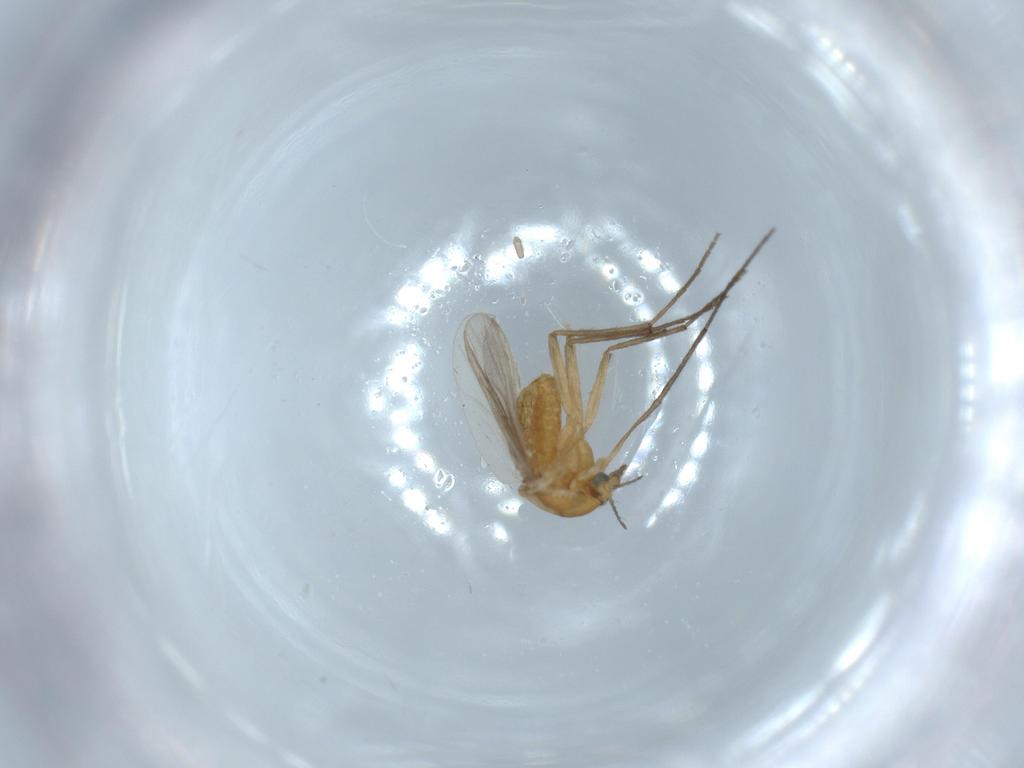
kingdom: Animalia
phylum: Arthropoda
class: Insecta
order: Diptera
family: Chironomidae
